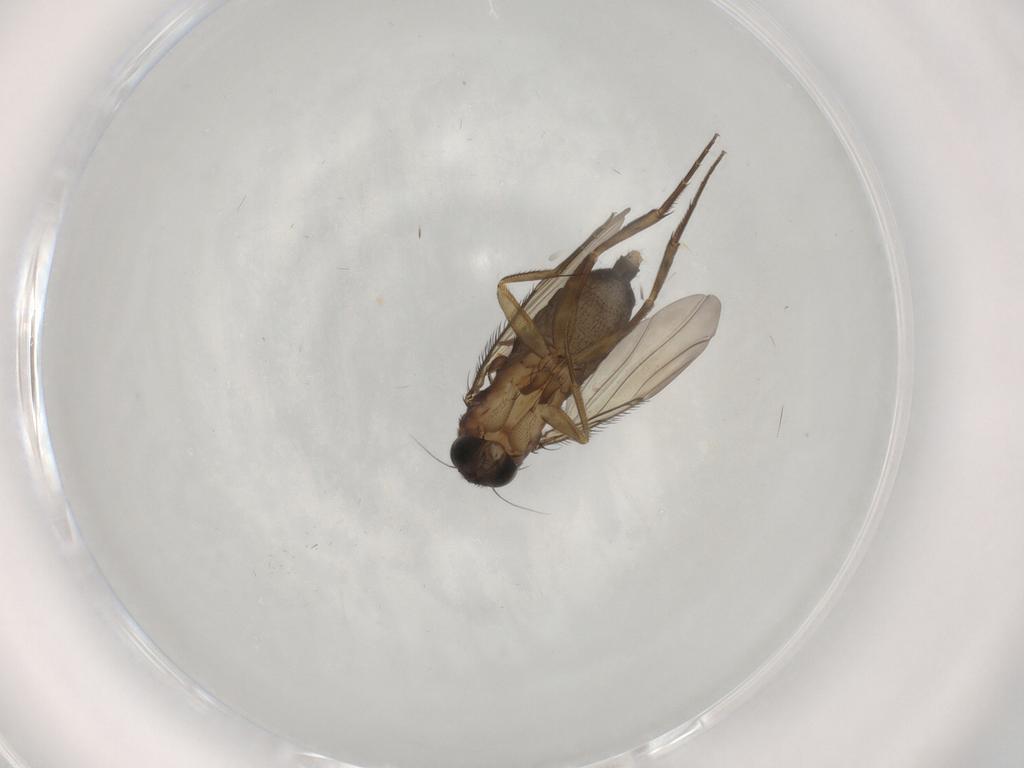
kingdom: Animalia
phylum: Arthropoda
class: Insecta
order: Diptera
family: Phoridae
